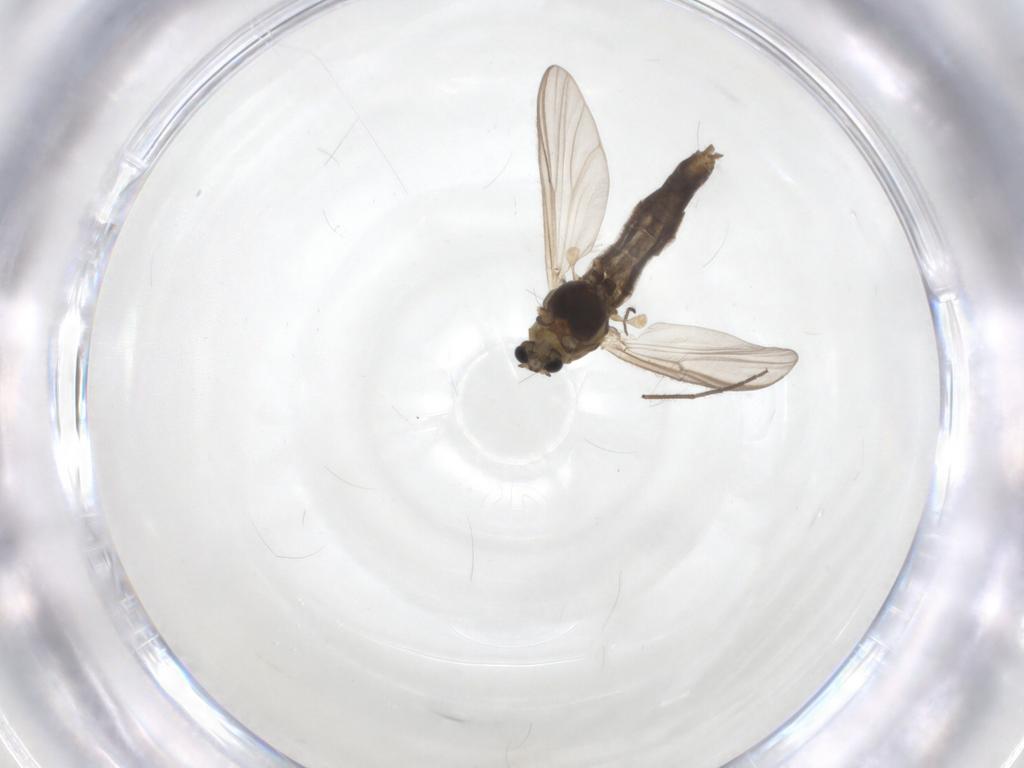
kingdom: Animalia
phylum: Arthropoda
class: Insecta
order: Diptera
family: Chironomidae
